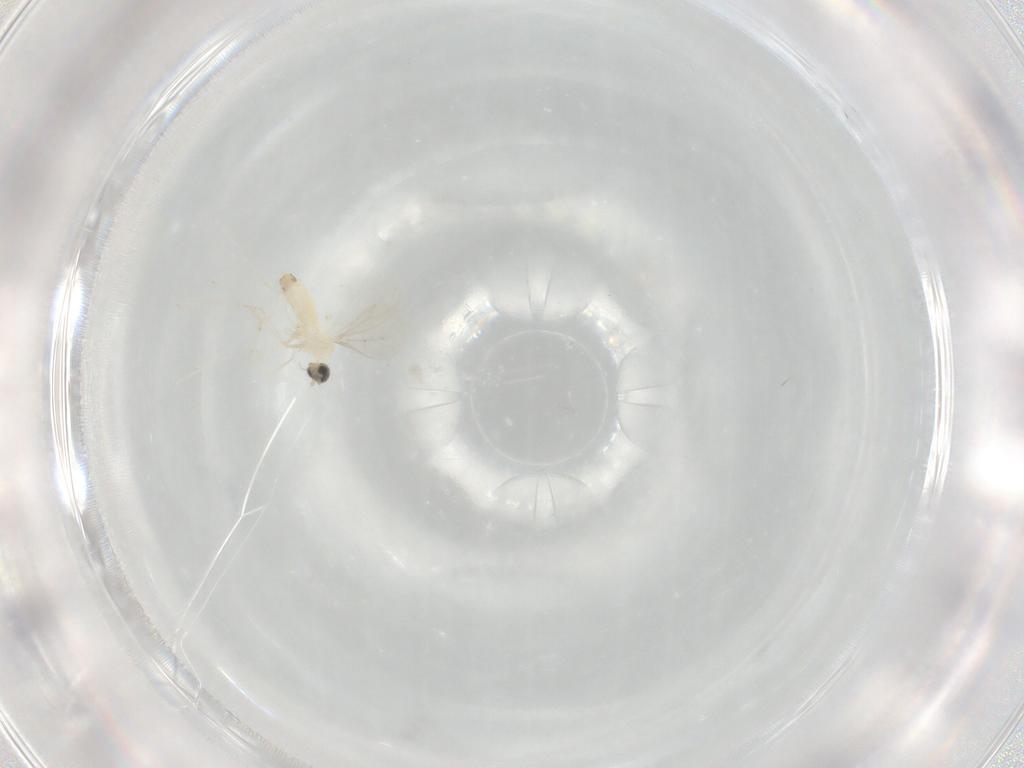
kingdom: Animalia
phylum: Arthropoda
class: Insecta
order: Diptera
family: Cecidomyiidae
